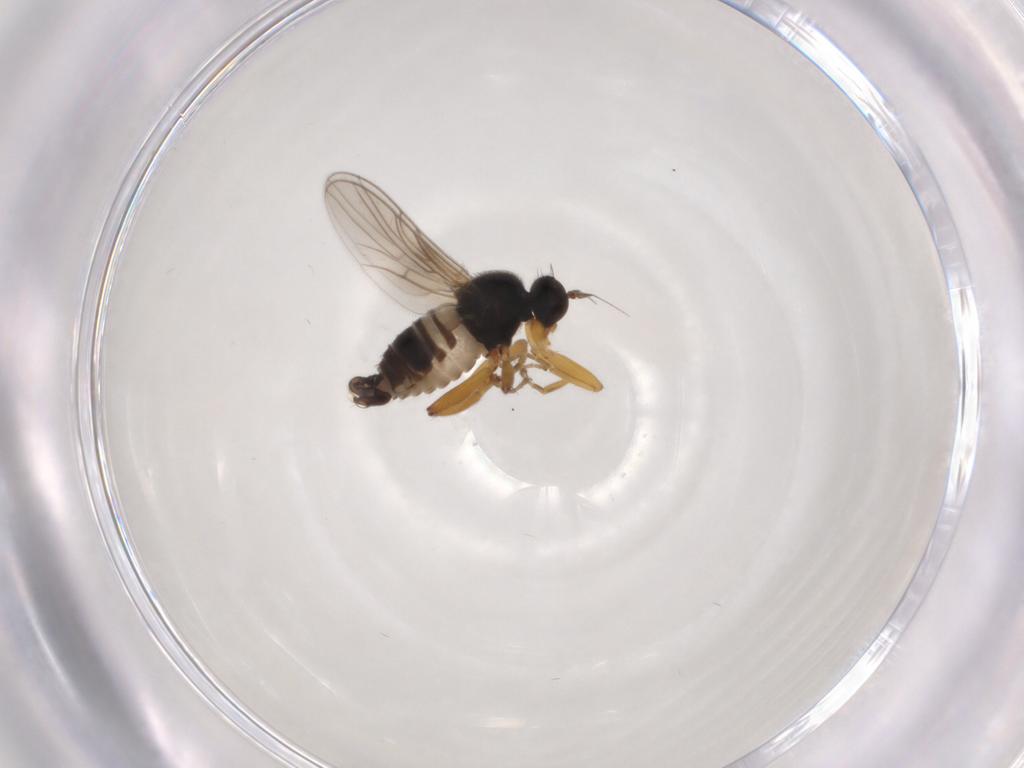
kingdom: Animalia
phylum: Arthropoda
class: Insecta
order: Diptera
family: Hybotidae
